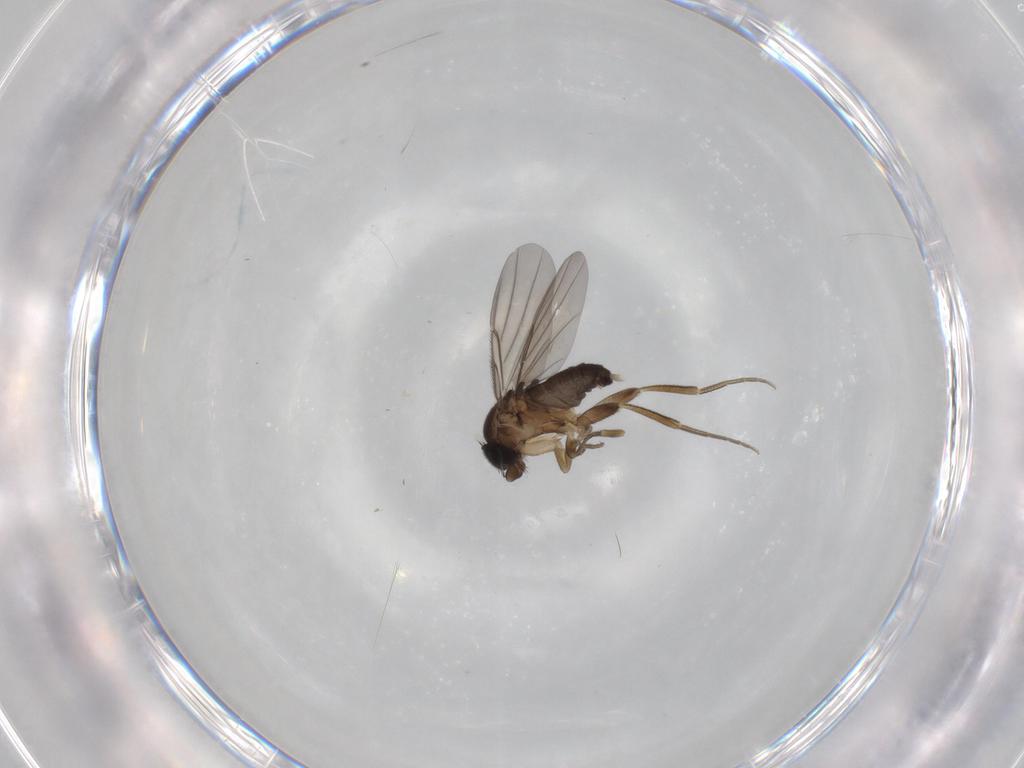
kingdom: Animalia
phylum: Arthropoda
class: Insecta
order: Diptera
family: Phoridae
